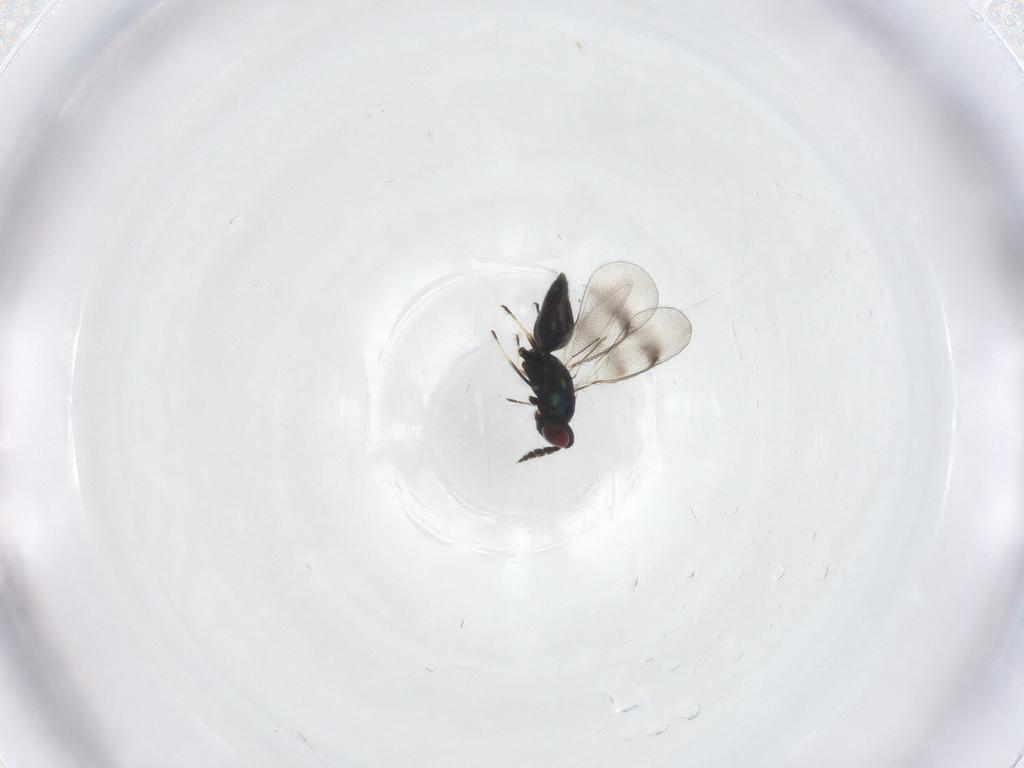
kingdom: Animalia
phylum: Arthropoda
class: Insecta
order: Hymenoptera
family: Eulophidae
